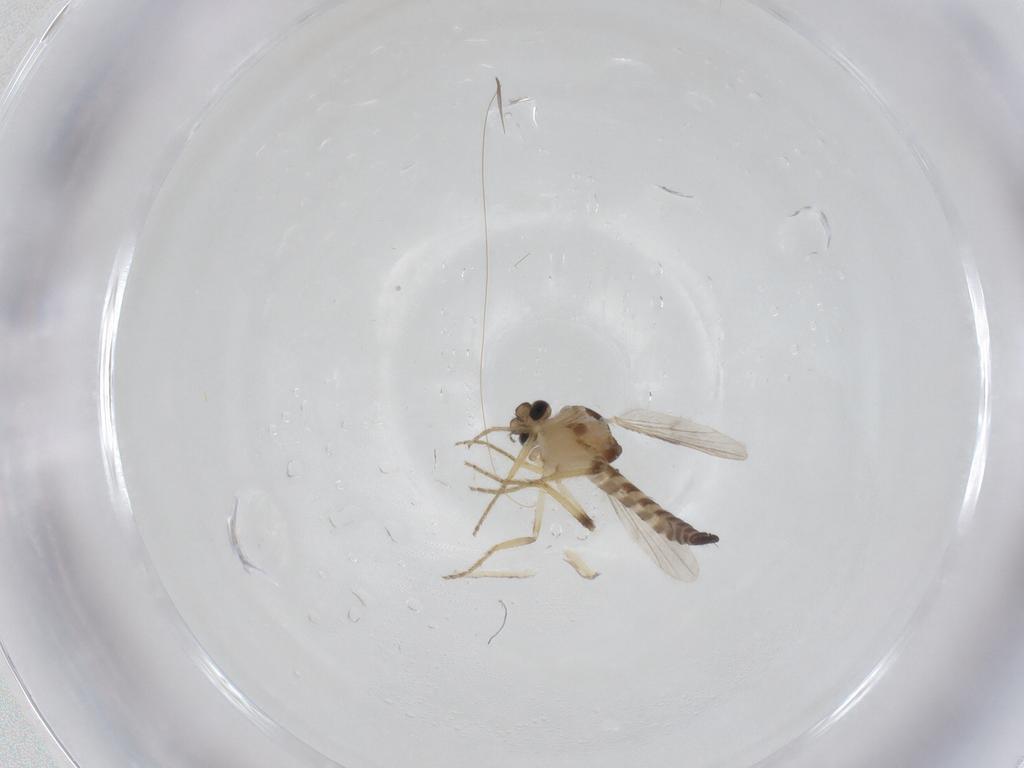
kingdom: Animalia
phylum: Arthropoda
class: Insecta
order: Diptera
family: Ceratopogonidae
